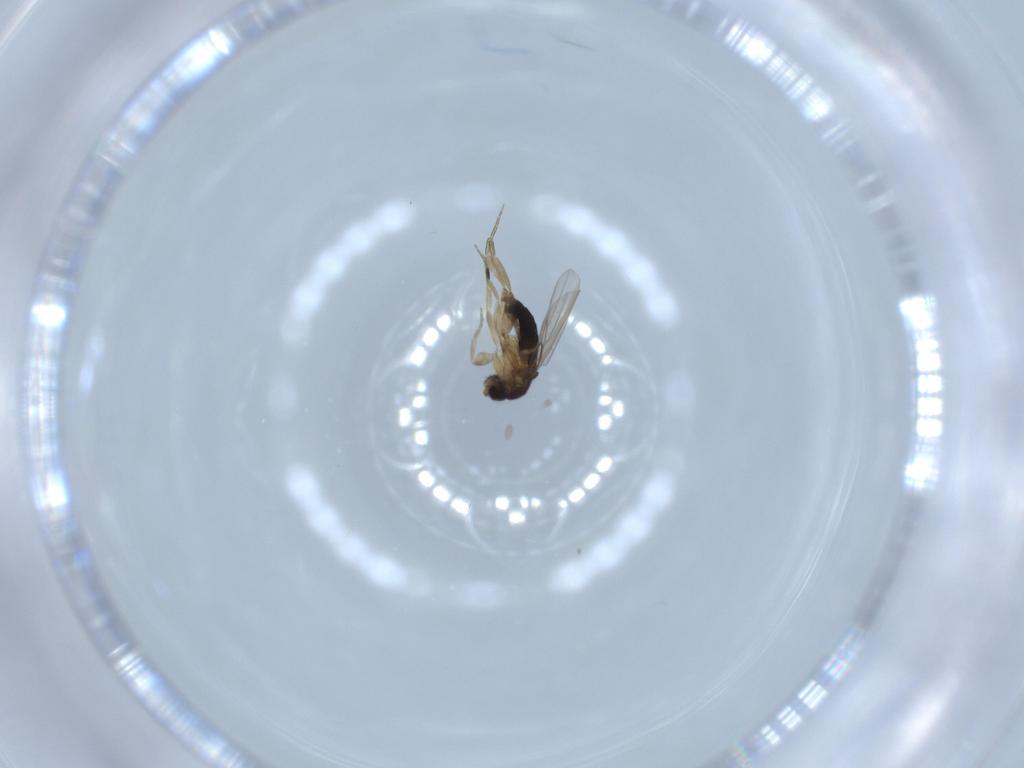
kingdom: Animalia
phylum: Arthropoda
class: Insecta
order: Diptera
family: Phoridae
